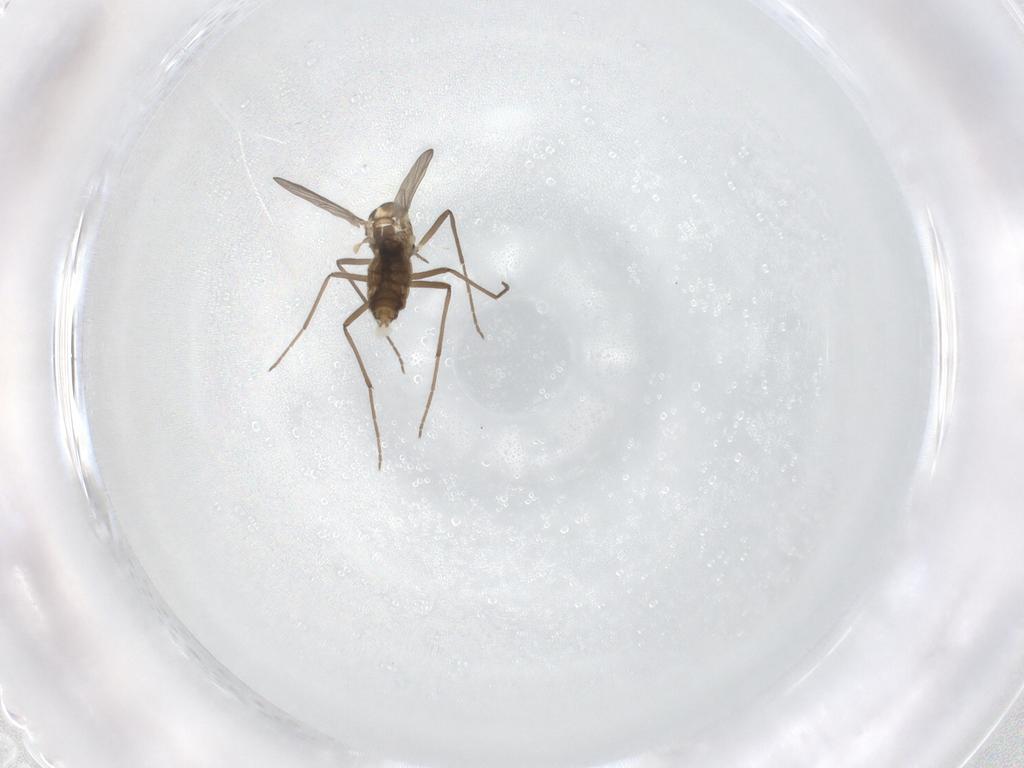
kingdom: Animalia
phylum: Arthropoda
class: Insecta
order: Diptera
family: Chironomidae
